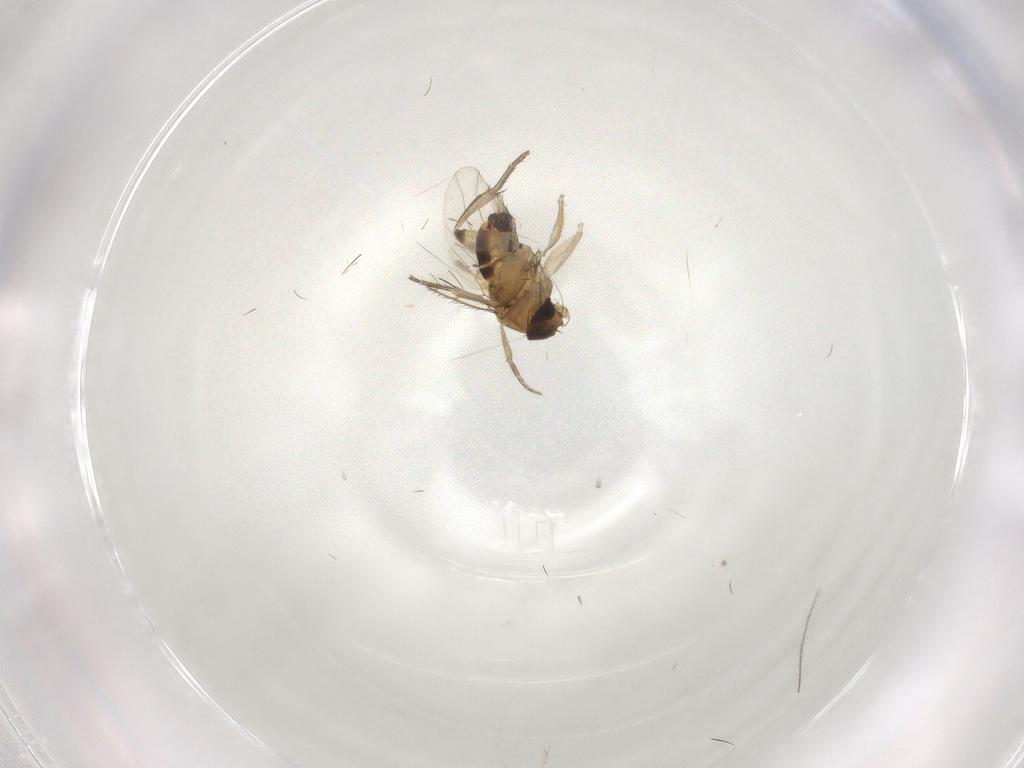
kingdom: Animalia
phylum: Arthropoda
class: Insecta
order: Diptera
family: Phoridae
